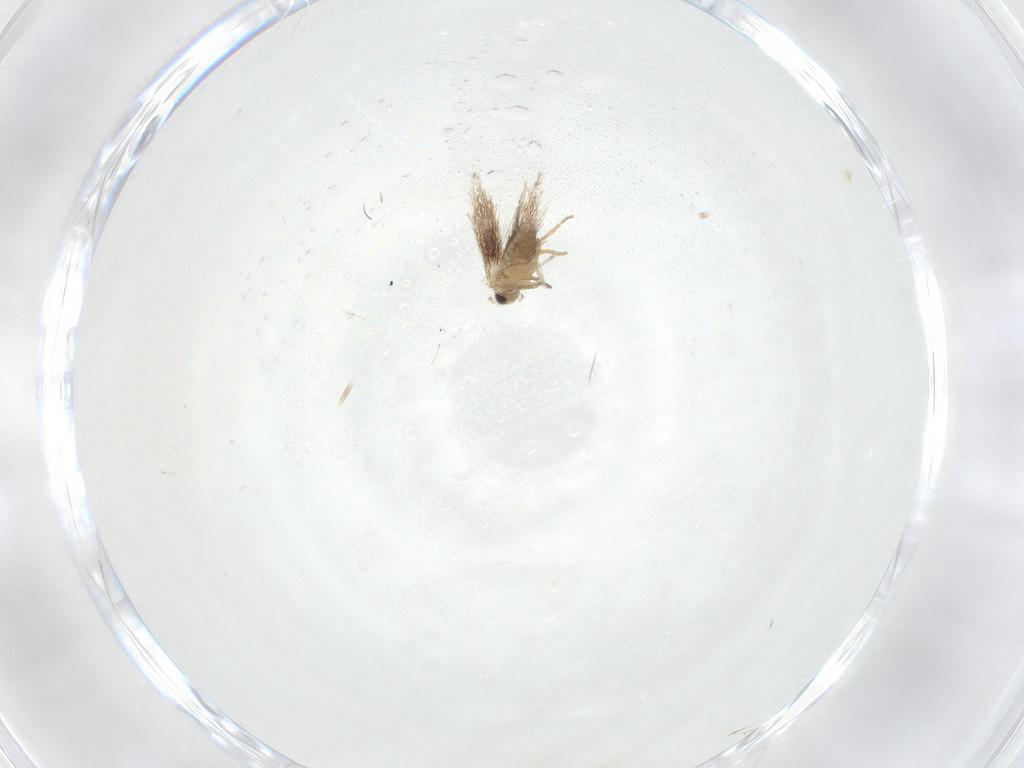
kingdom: Animalia
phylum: Arthropoda
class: Insecta
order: Lepidoptera
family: Nepticulidae
